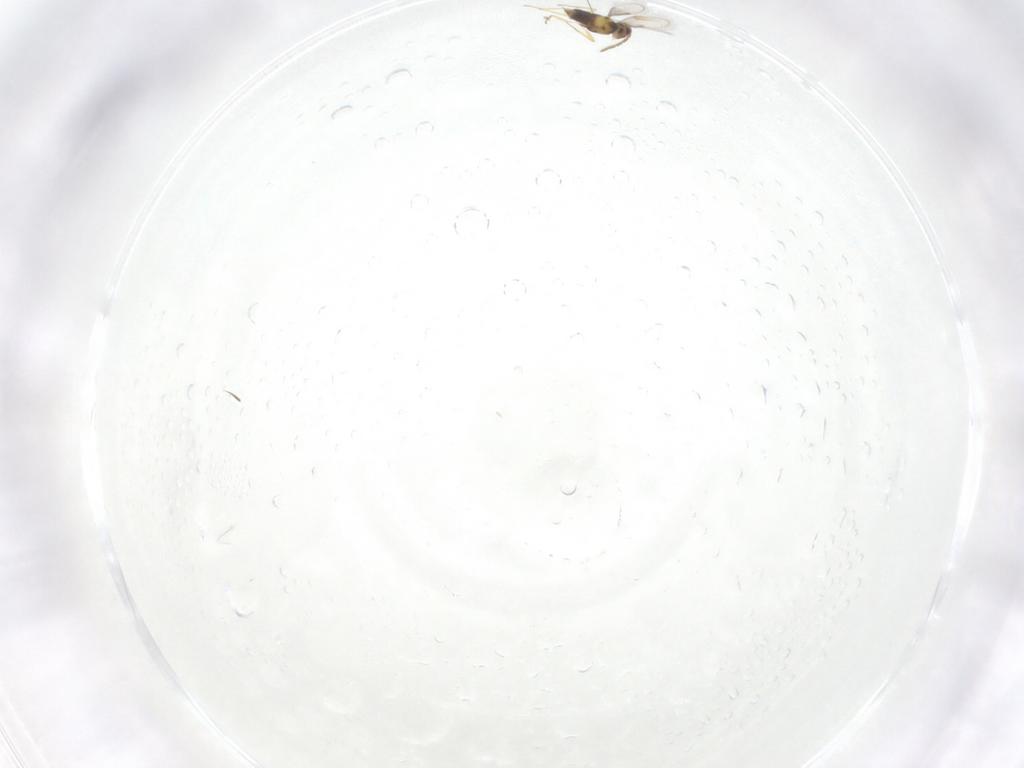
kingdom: Animalia
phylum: Arthropoda
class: Insecta
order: Hymenoptera
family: Aphelinidae
